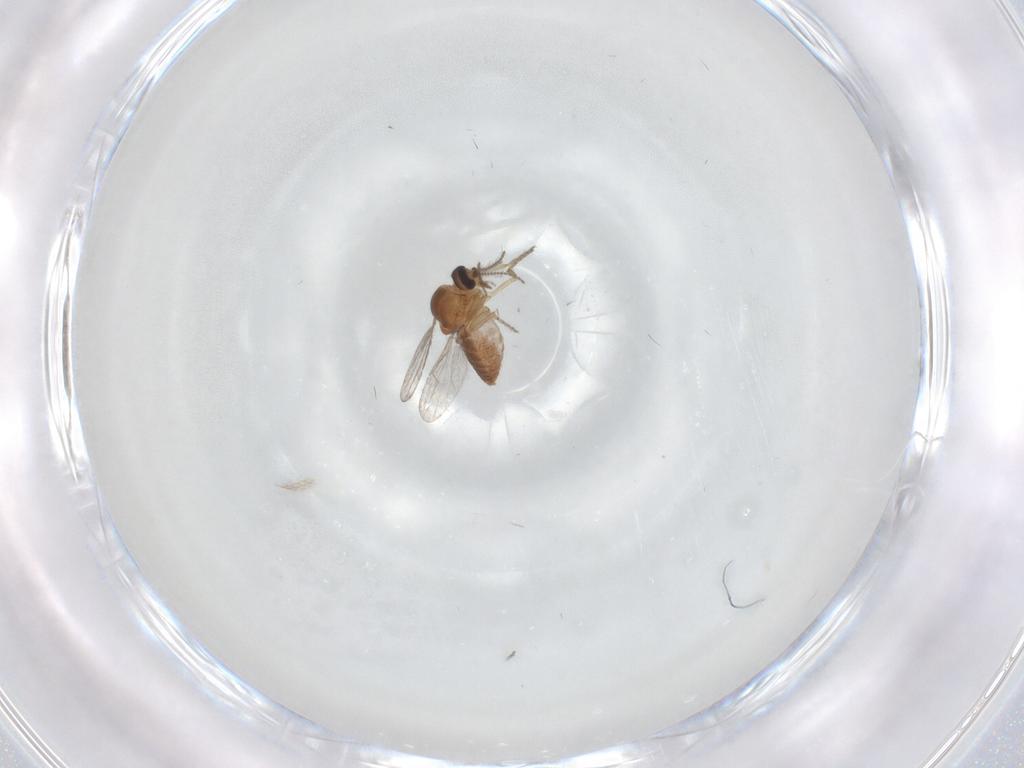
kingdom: Animalia
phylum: Arthropoda
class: Insecta
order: Diptera
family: Ceratopogonidae
